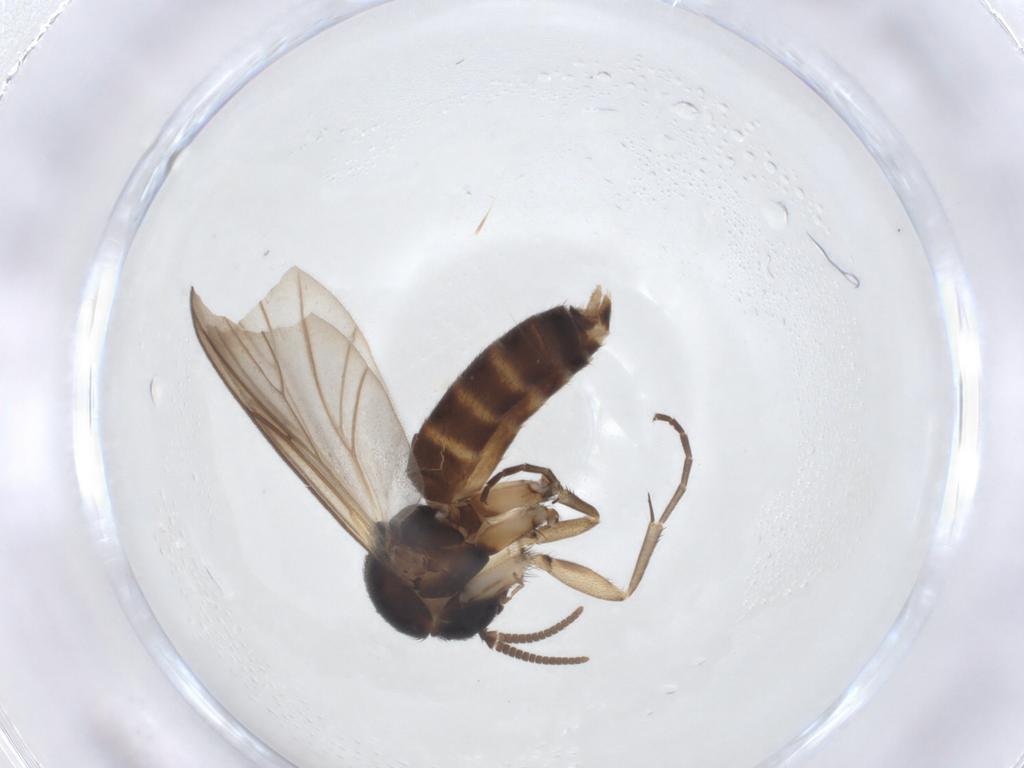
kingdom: Animalia
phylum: Arthropoda
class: Insecta
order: Diptera
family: Mycetophilidae
